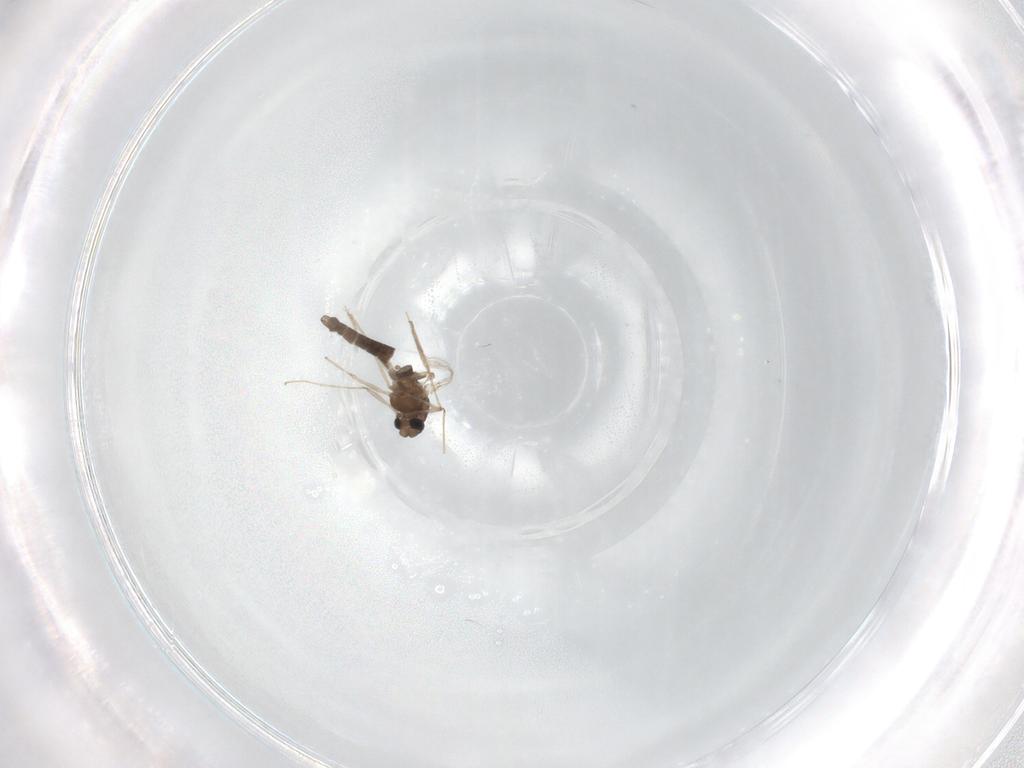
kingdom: Animalia
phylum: Arthropoda
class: Insecta
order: Diptera
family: Chironomidae
